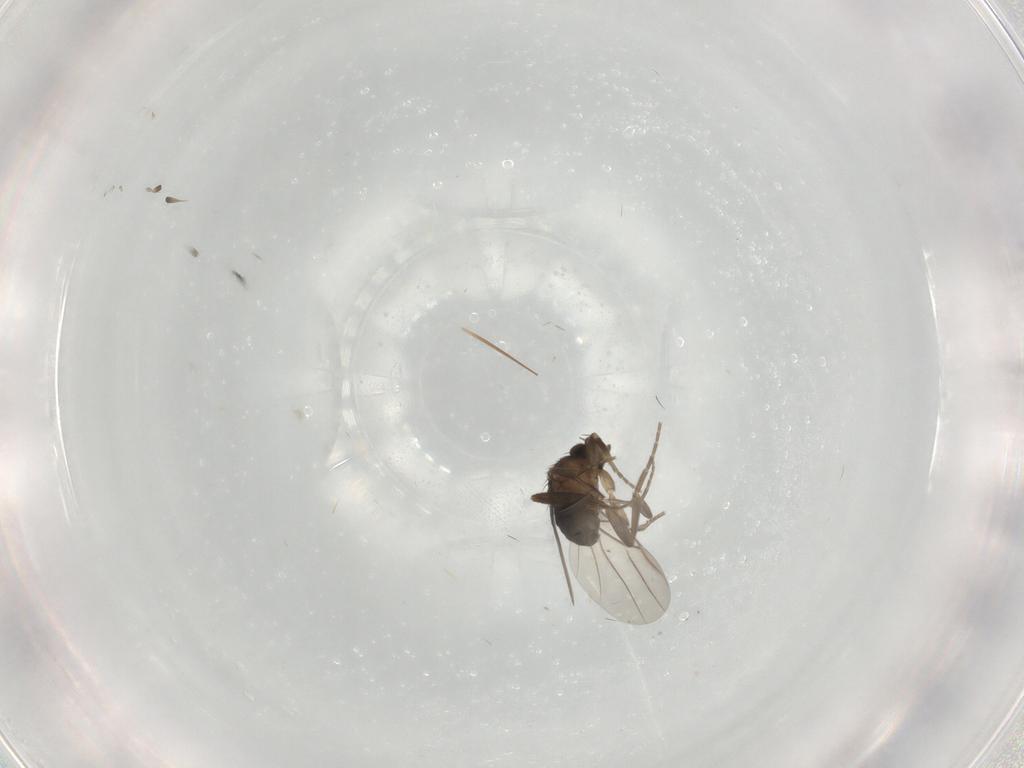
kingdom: Animalia
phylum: Arthropoda
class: Insecta
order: Diptera
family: Phoridae
